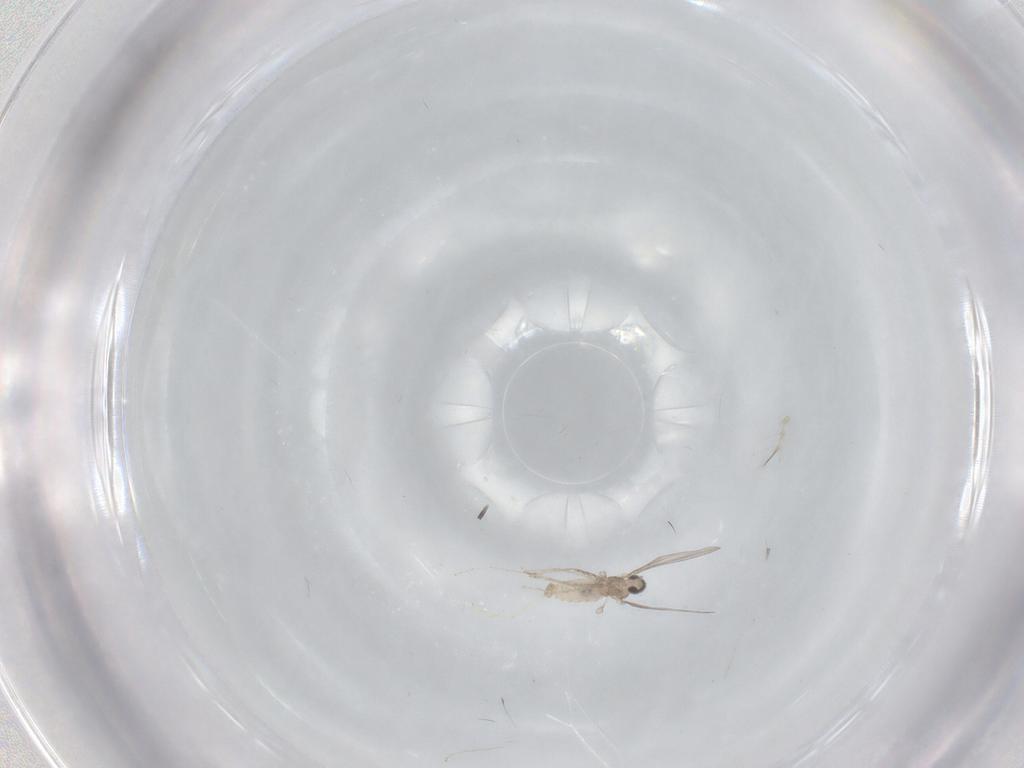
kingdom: Animalia
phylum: Arthropoda
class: Insecta
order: Diptera
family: Cecidomyiidae
